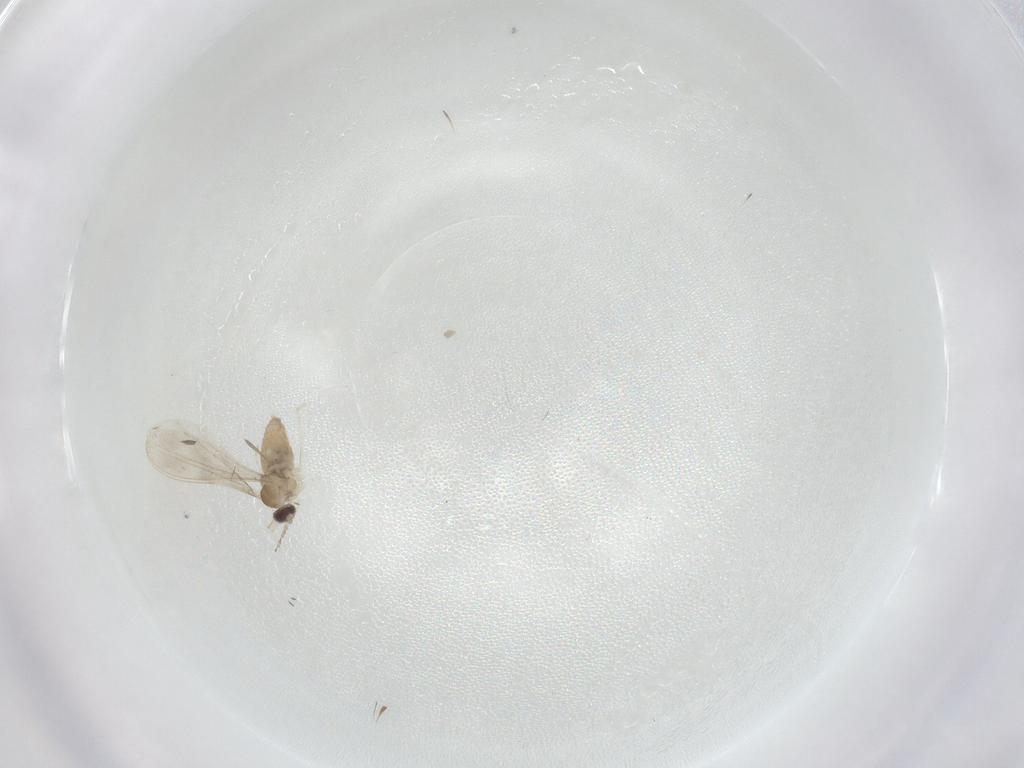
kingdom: Animalia
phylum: Arthropoda
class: Insecta
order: Diptera
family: Cecidomyiidae
